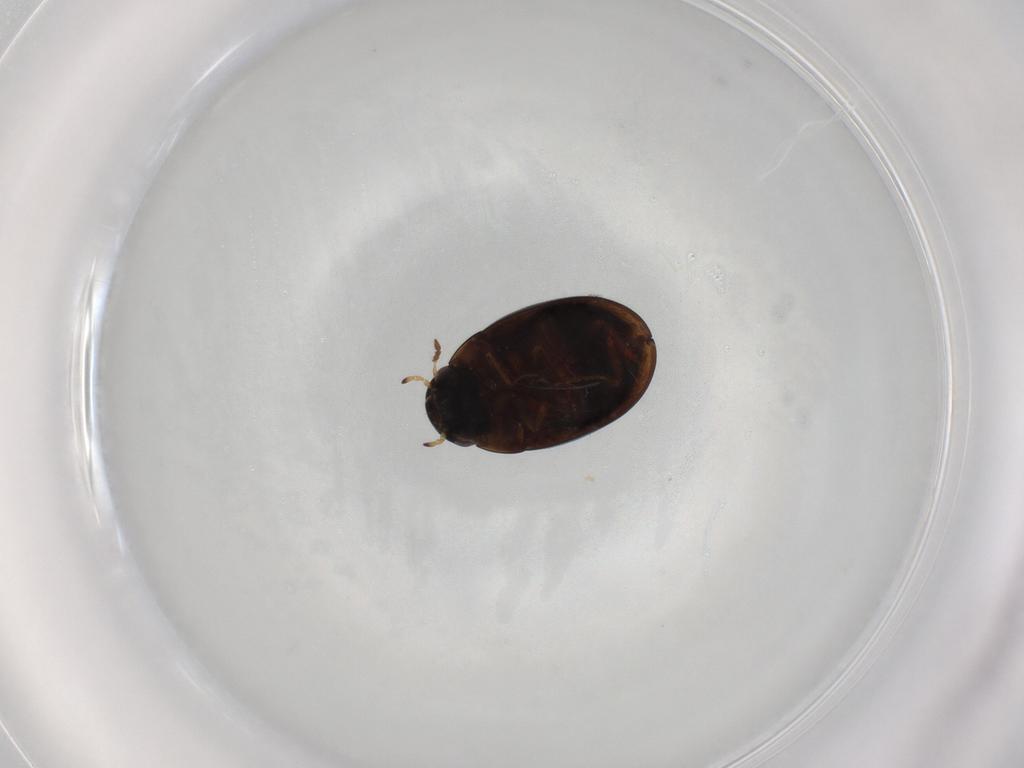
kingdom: Animalia
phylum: Arthropoda
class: Insecta
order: Coleoptera
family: Hydrophilidae
